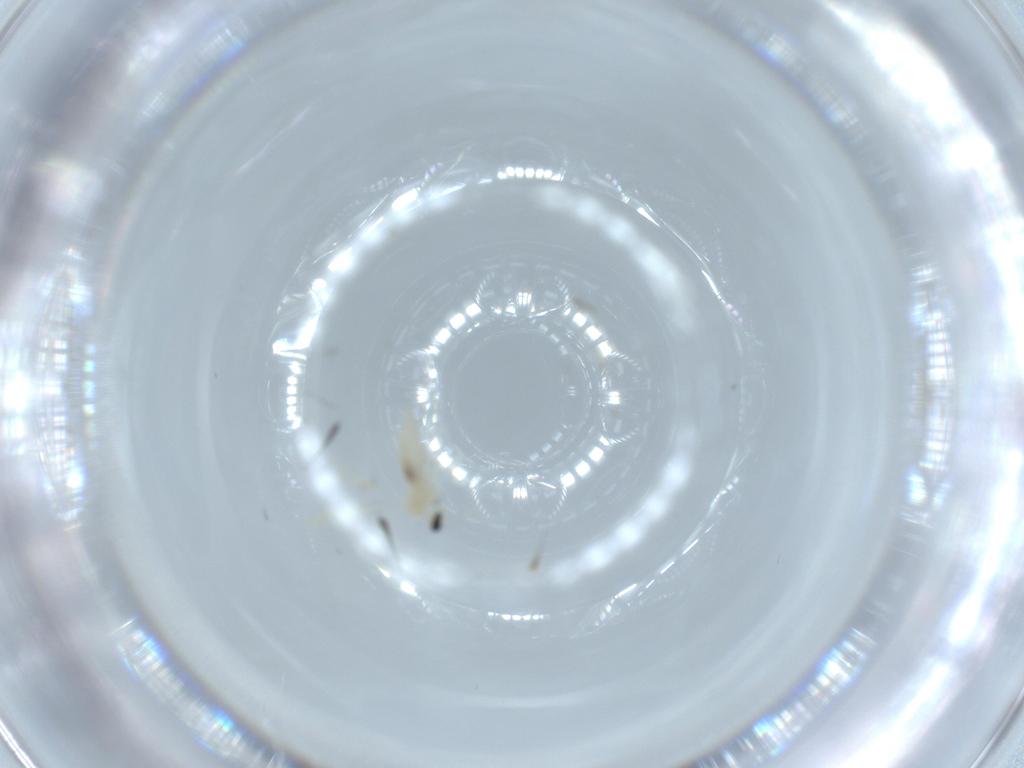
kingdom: Animalia
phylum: Arthropoda
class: Insecta
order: Diptera
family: Cecidomyiidae
